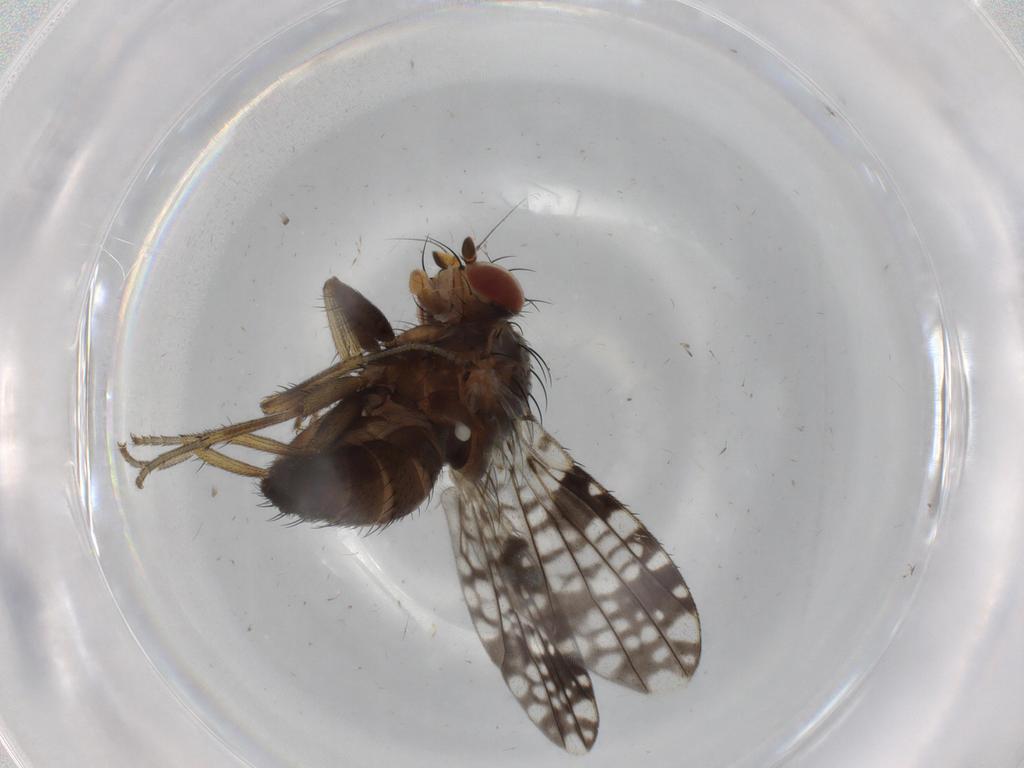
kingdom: Animalia
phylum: Arthropoda
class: Insecta
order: Diptera
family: Tephritidae
